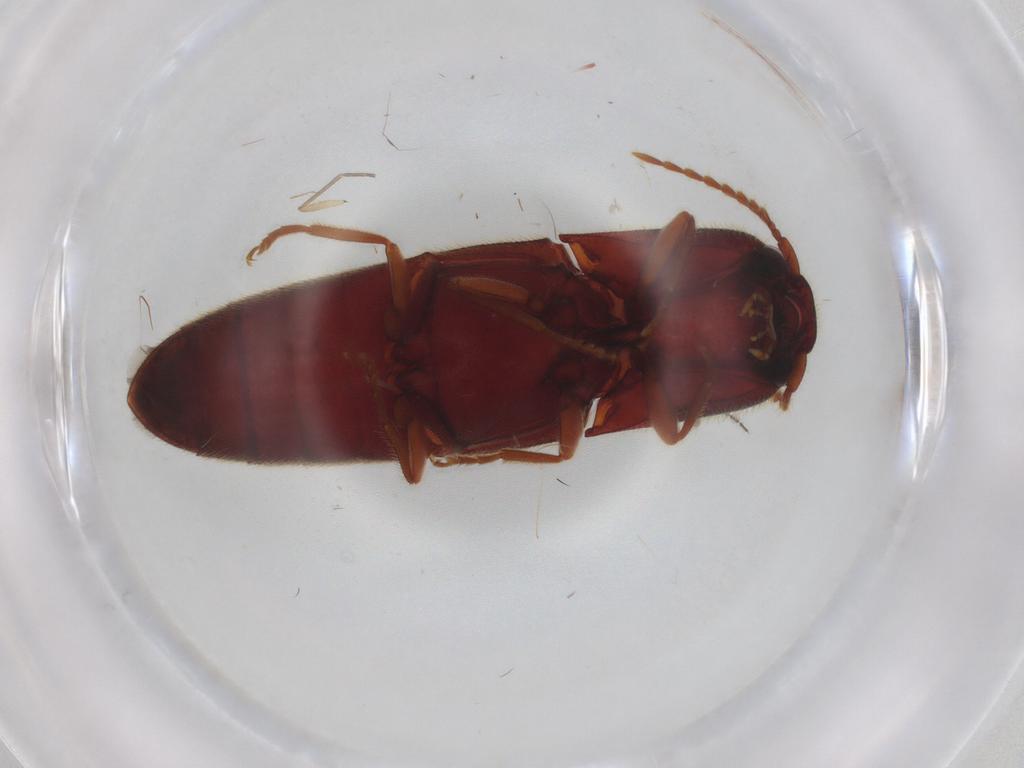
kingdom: Animalia
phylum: Arthropoda
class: Insecta
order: Coleoptera
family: Elateridae
